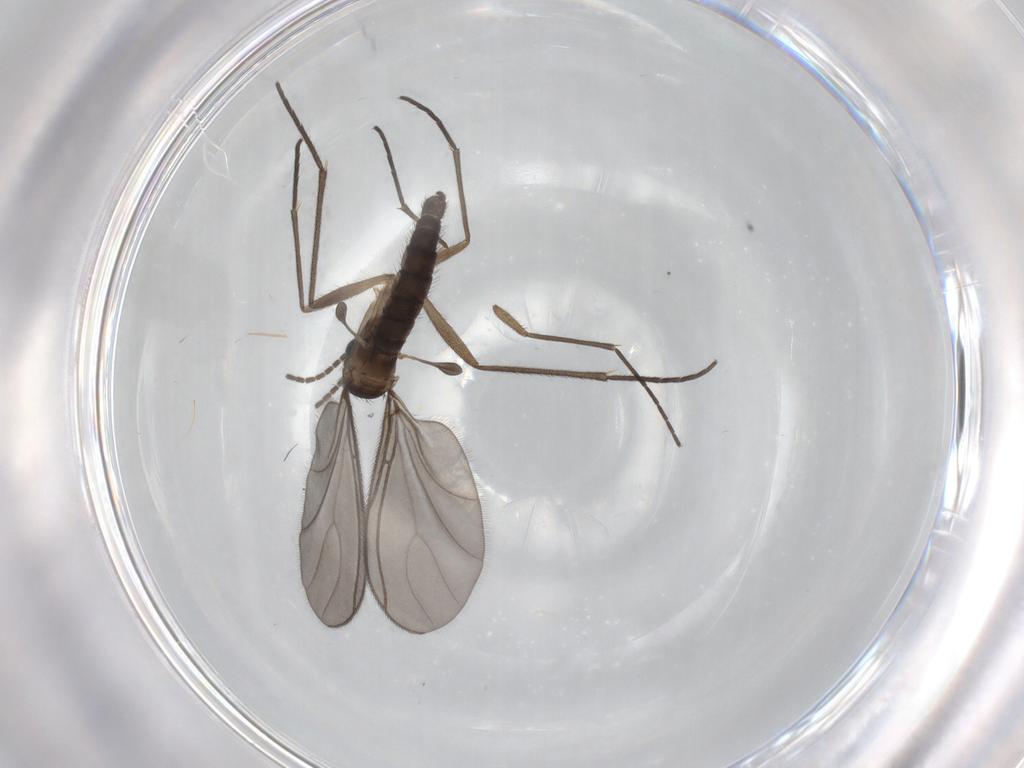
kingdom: Animalia
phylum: Arthropoda
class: Insecta
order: Diptera
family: Sciaridae
